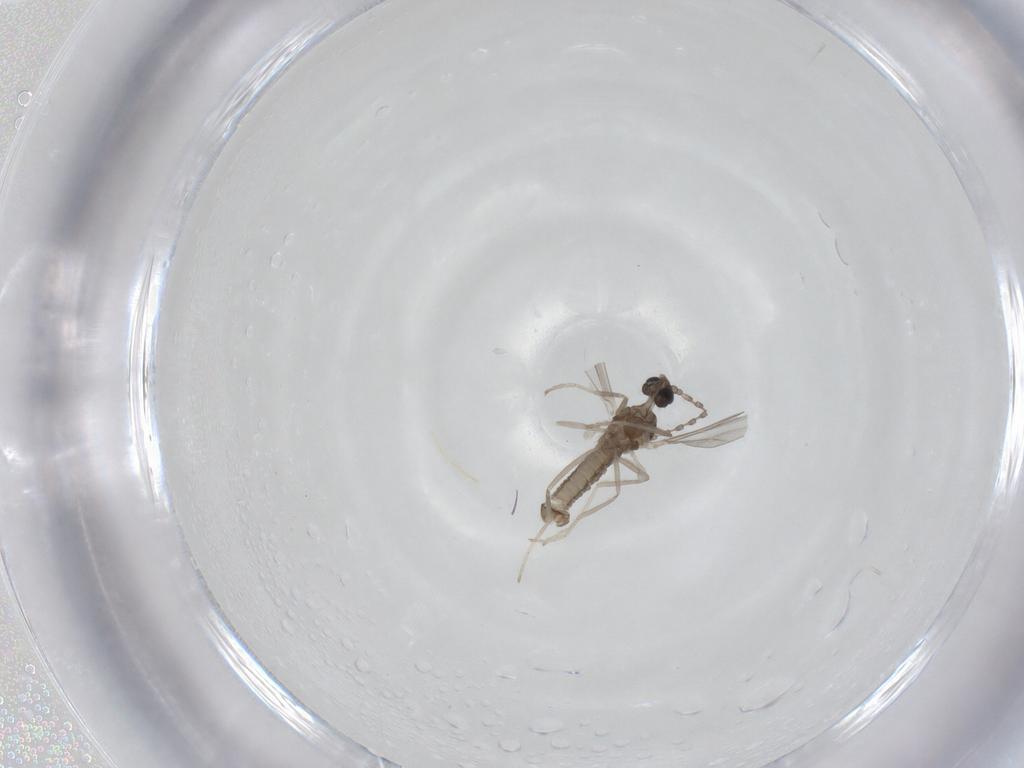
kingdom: Animalia
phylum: Arthropoda
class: Insecta
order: Diptera
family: Cecidomyiidae
